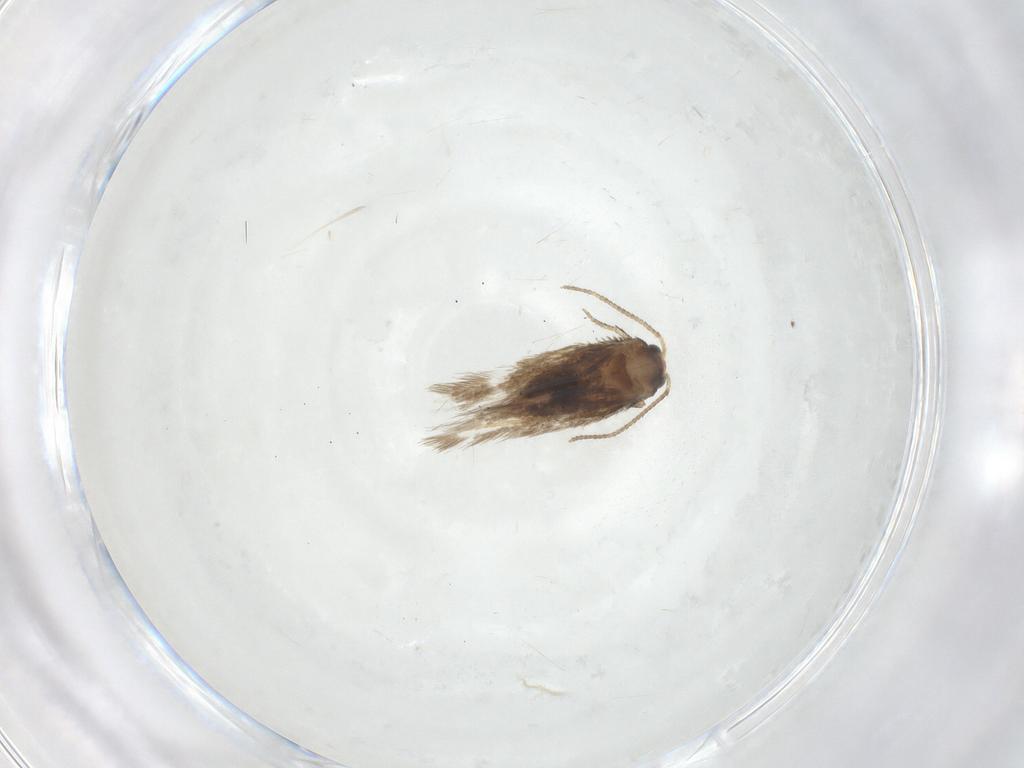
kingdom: Animalia
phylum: Arthropoda
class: Insecta
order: Lepidoptera
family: Nepticulidae
